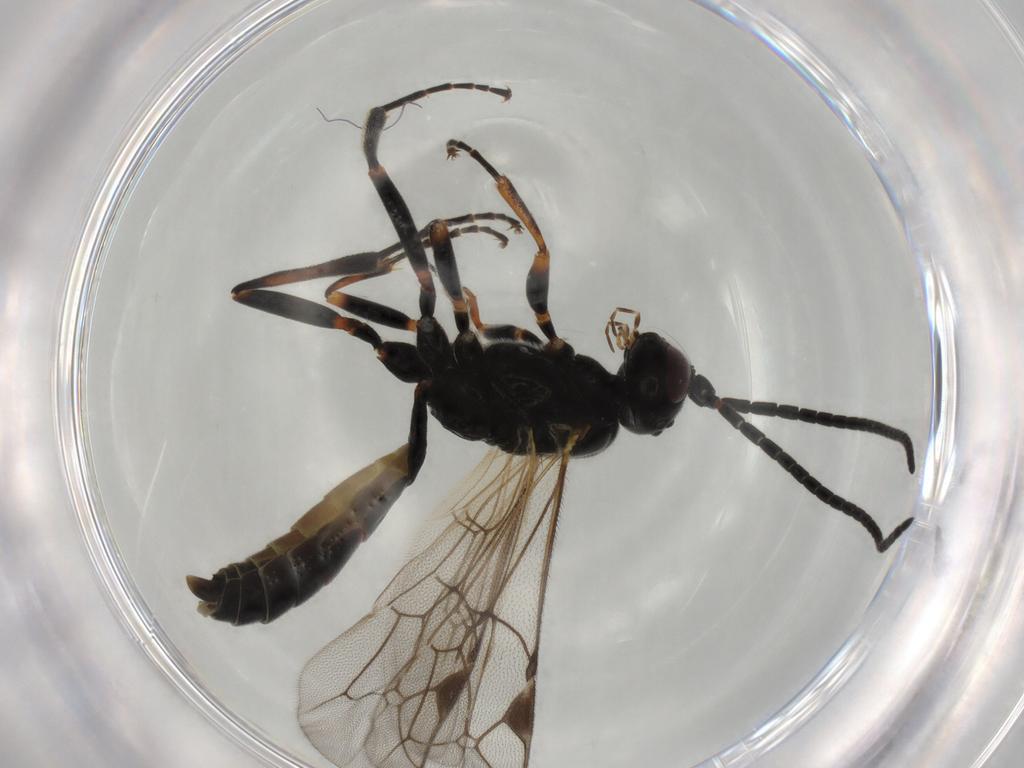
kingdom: Animalia
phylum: Arthropoda
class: Insecta
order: Hymenoptera
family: Ichneumonidae
